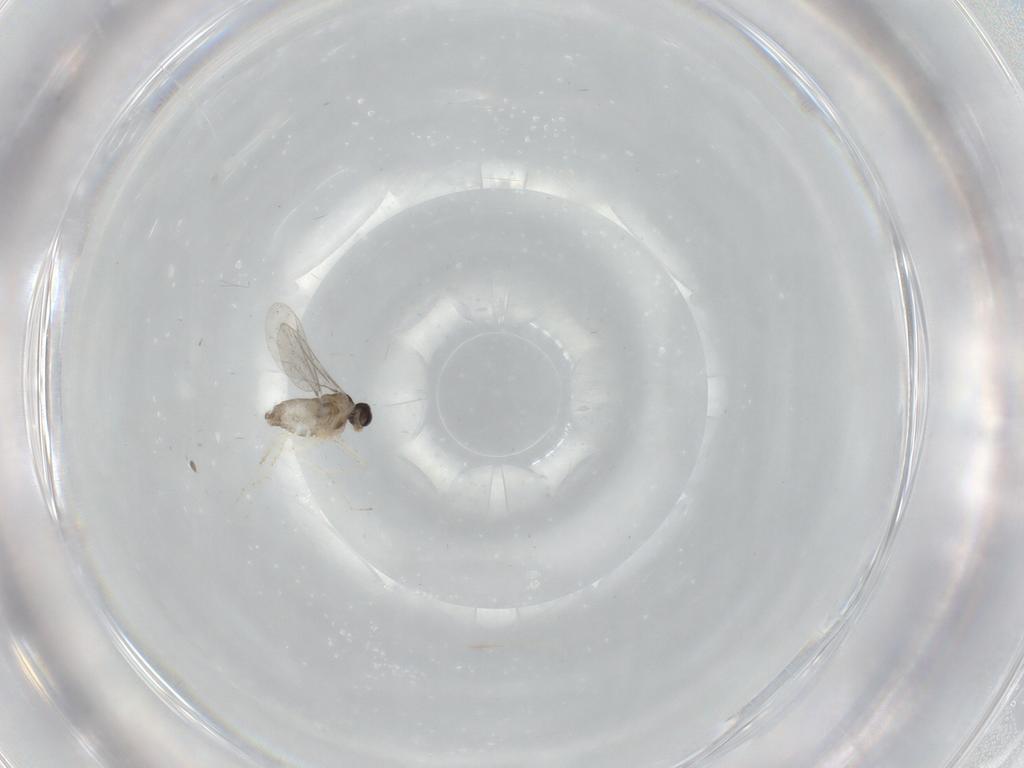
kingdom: Animalia
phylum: Arthropoda
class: Insecta
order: Diptera
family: Cecidomyiidae
